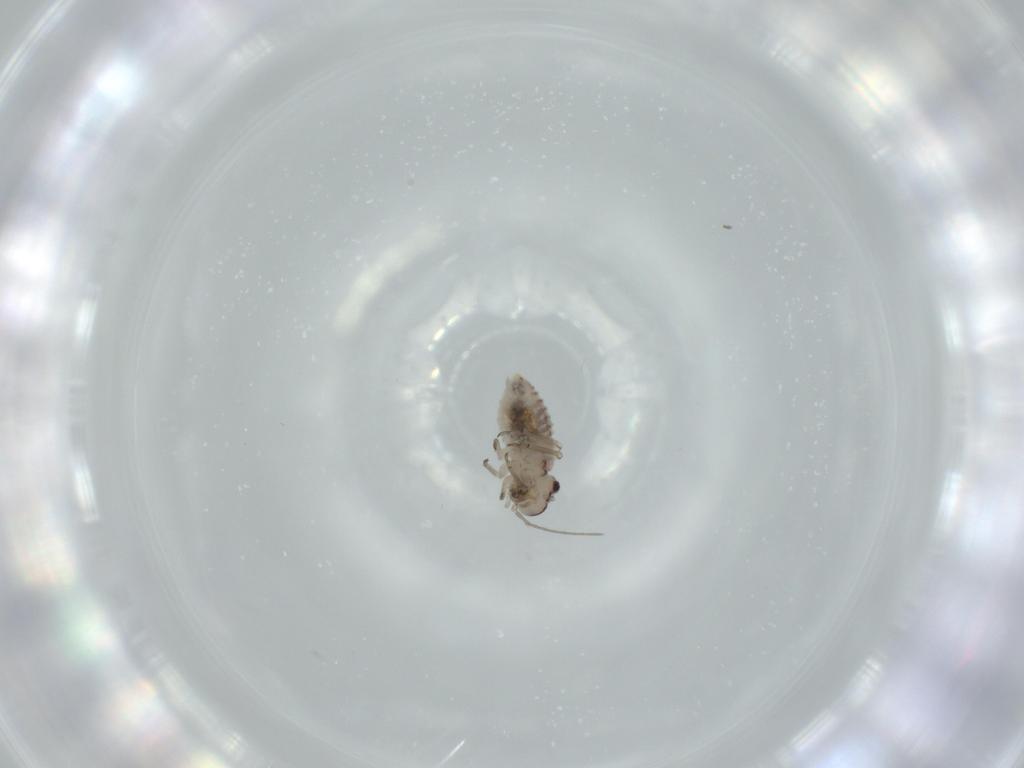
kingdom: Animalia
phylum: Arthropoda
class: Insecta
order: Psocodea
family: Psocidae
